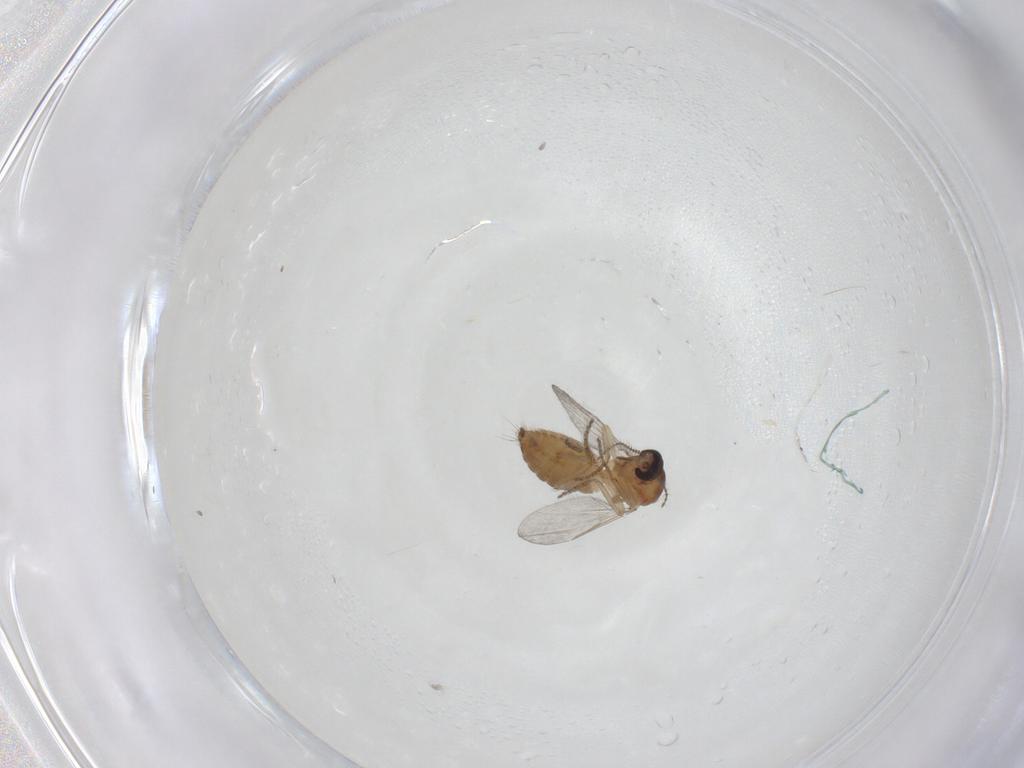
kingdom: Animalia
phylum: Arthropoda
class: Insecta
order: Diptera
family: Ceratopogonidae
